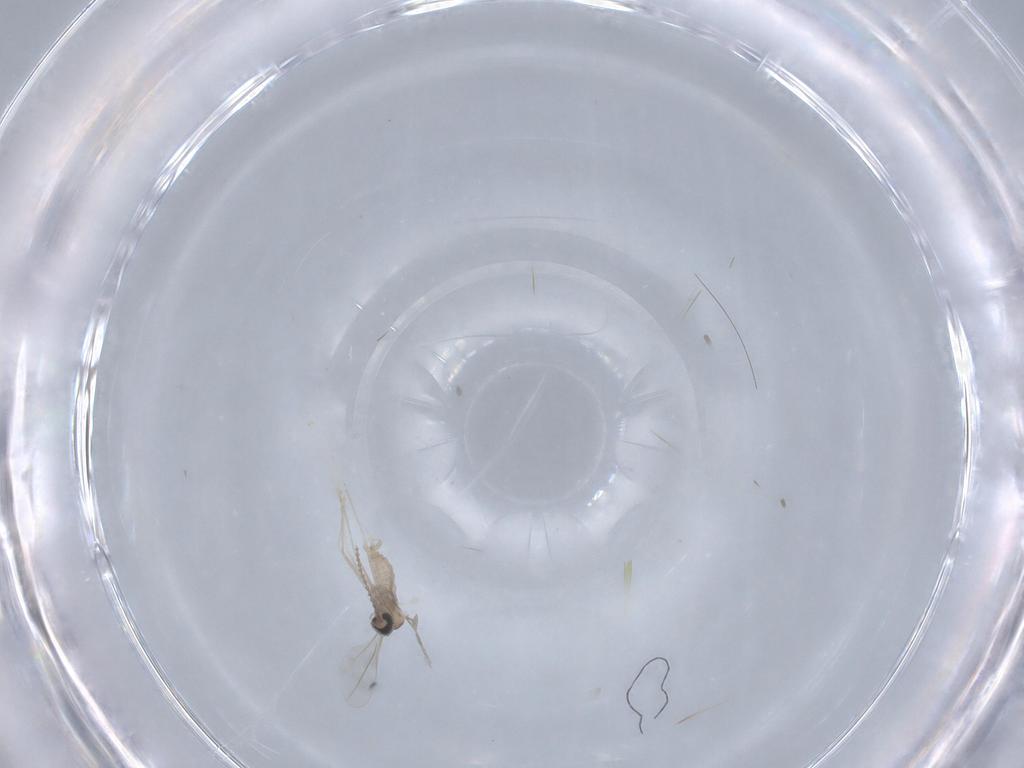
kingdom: Animalia
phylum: Arthropoda
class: Insecta
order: Diptera
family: Cecidomyiidae
